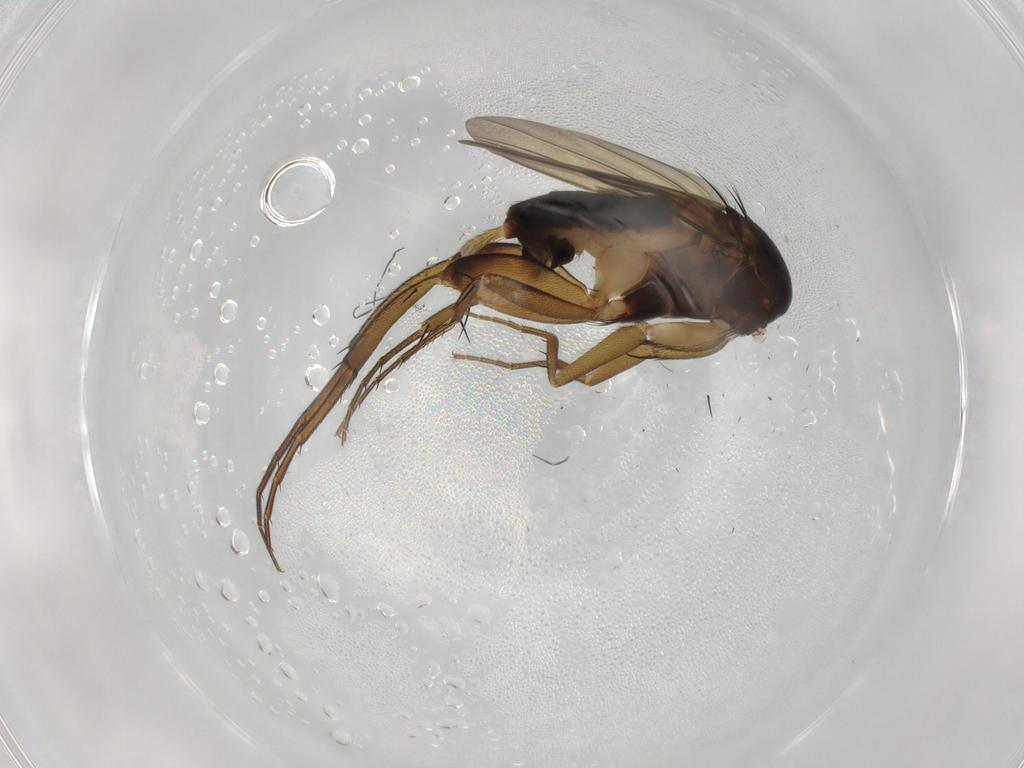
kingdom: Animalia
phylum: Arthropoda
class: Insecta
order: Diptera
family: Phoridae
